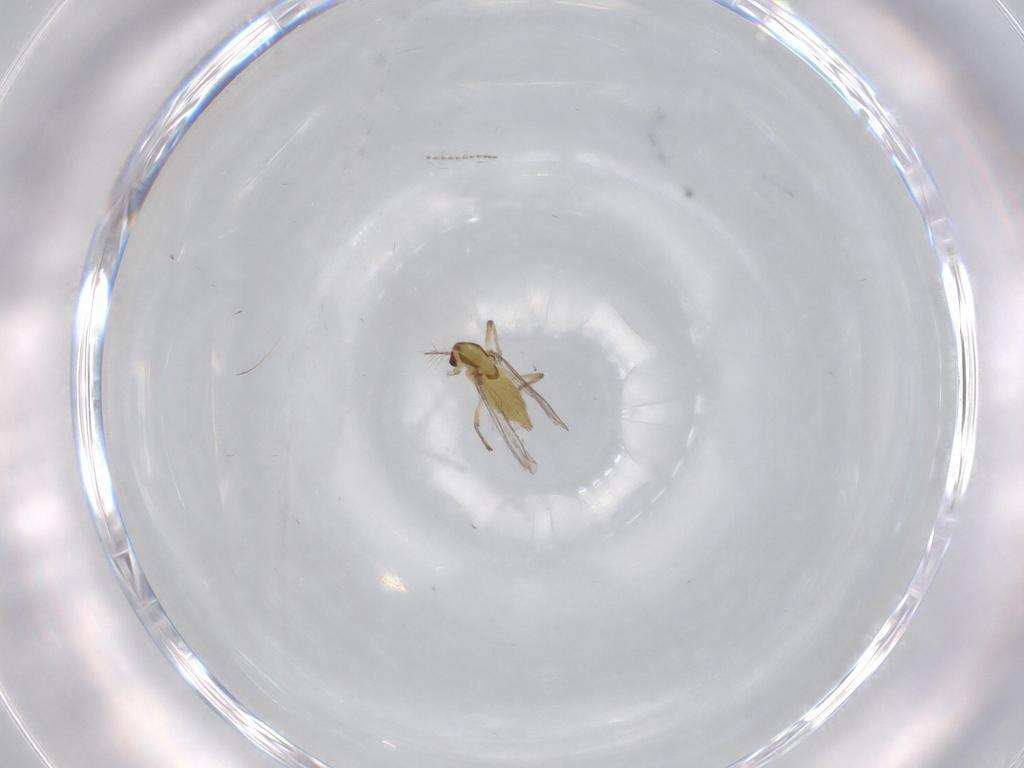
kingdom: Animalia
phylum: Arthropoda
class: Insecta
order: Diptera
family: Chironomidae
